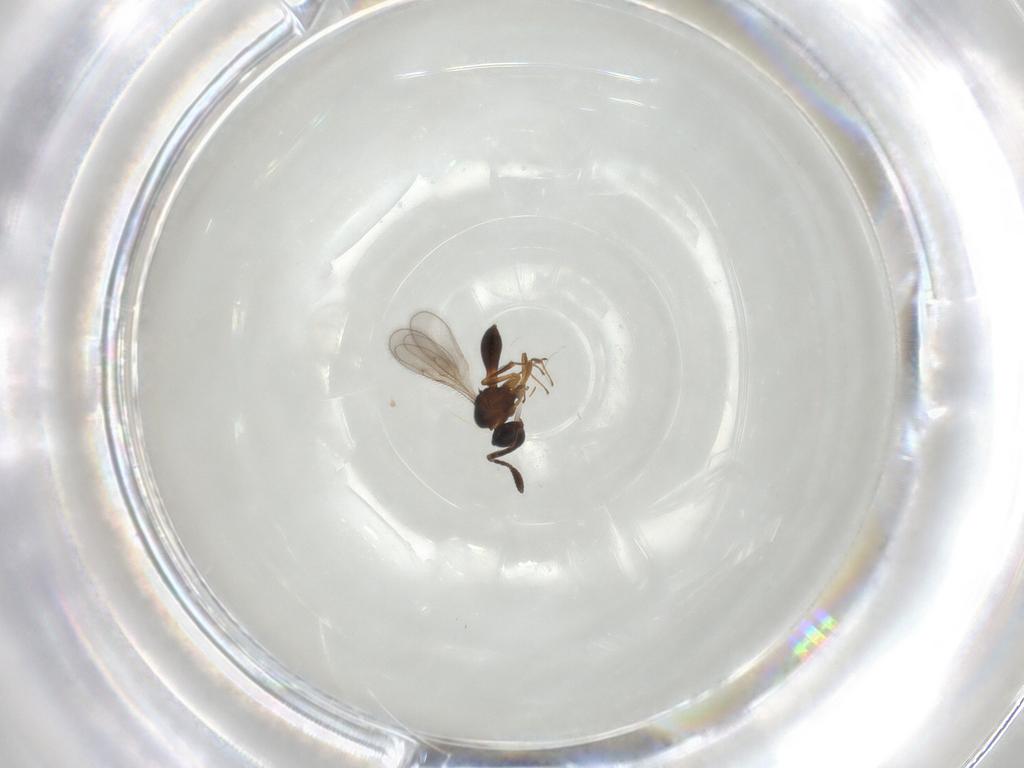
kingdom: Animalia
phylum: Arthropoda
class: Insecta
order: Hymenoptera
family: Scelionidae
